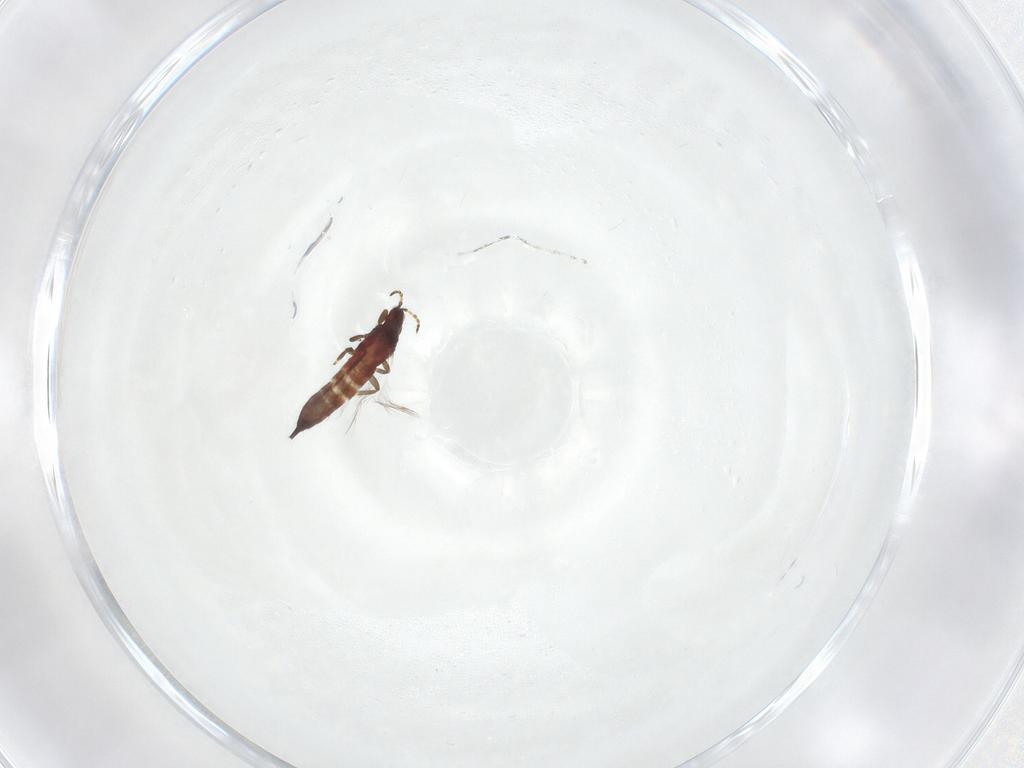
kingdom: Animalia
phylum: Arthropoda
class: Insecta
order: Thysanoptera
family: Phlaeothripidae
